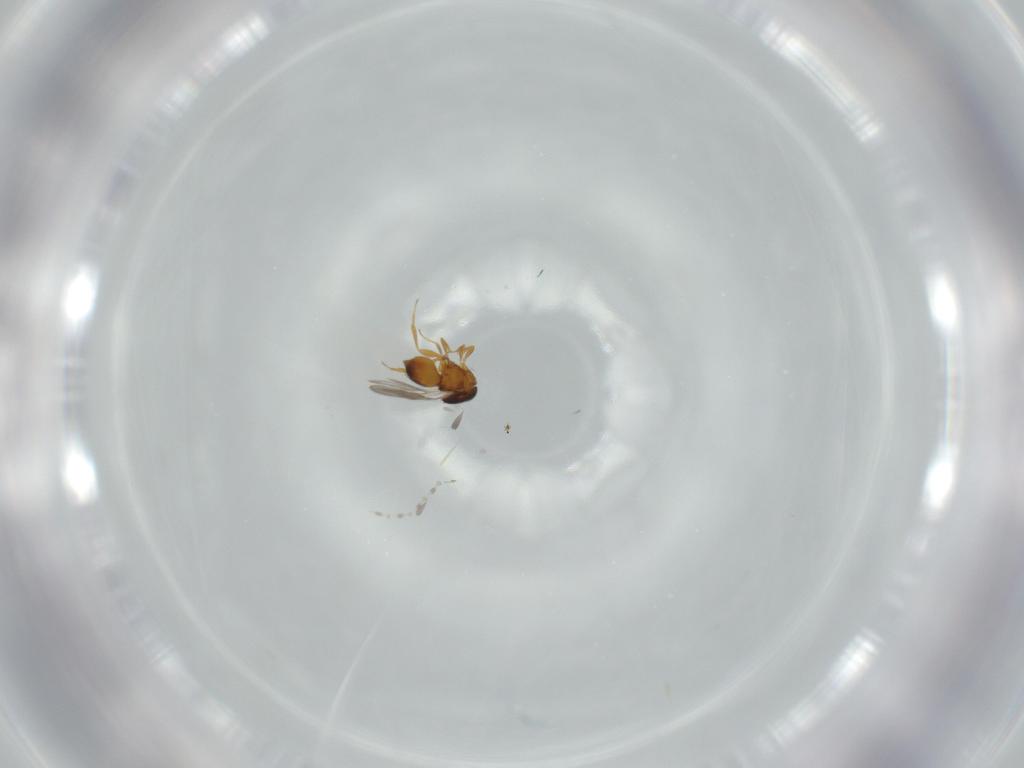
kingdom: Animalia
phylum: Arthropoda
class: Insecta
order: Hymenoptera
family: Ceraphronidae
